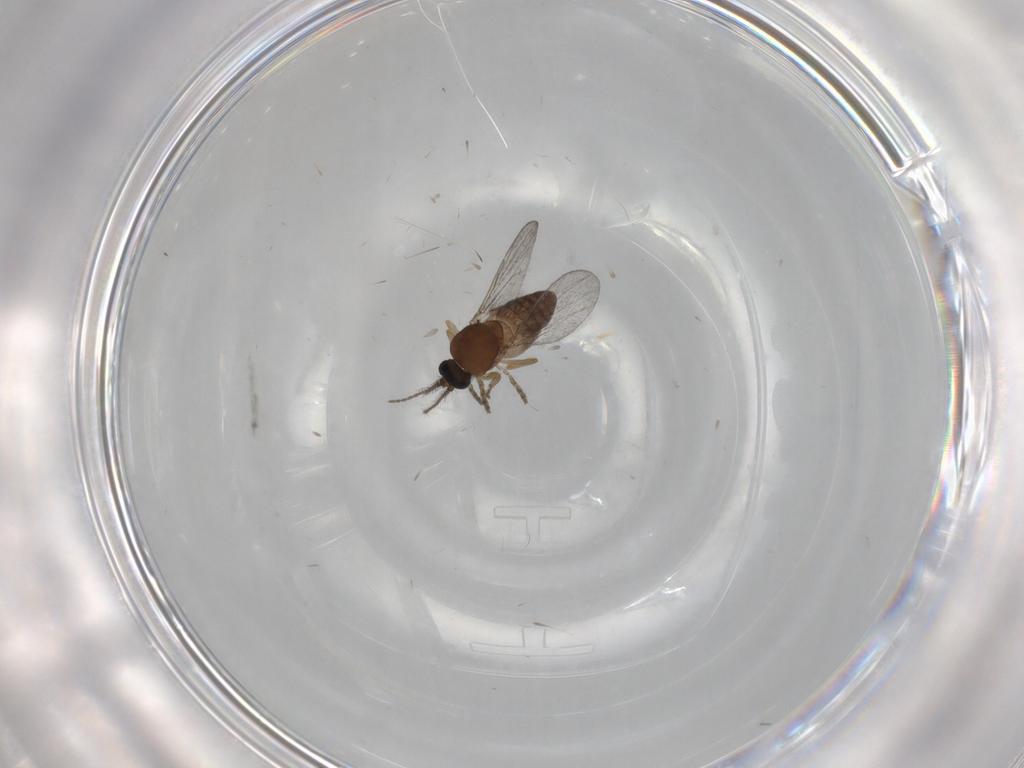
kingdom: Animalia
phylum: Arthropoda
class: Insecta
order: Diptera
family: Ceratopogonidae
